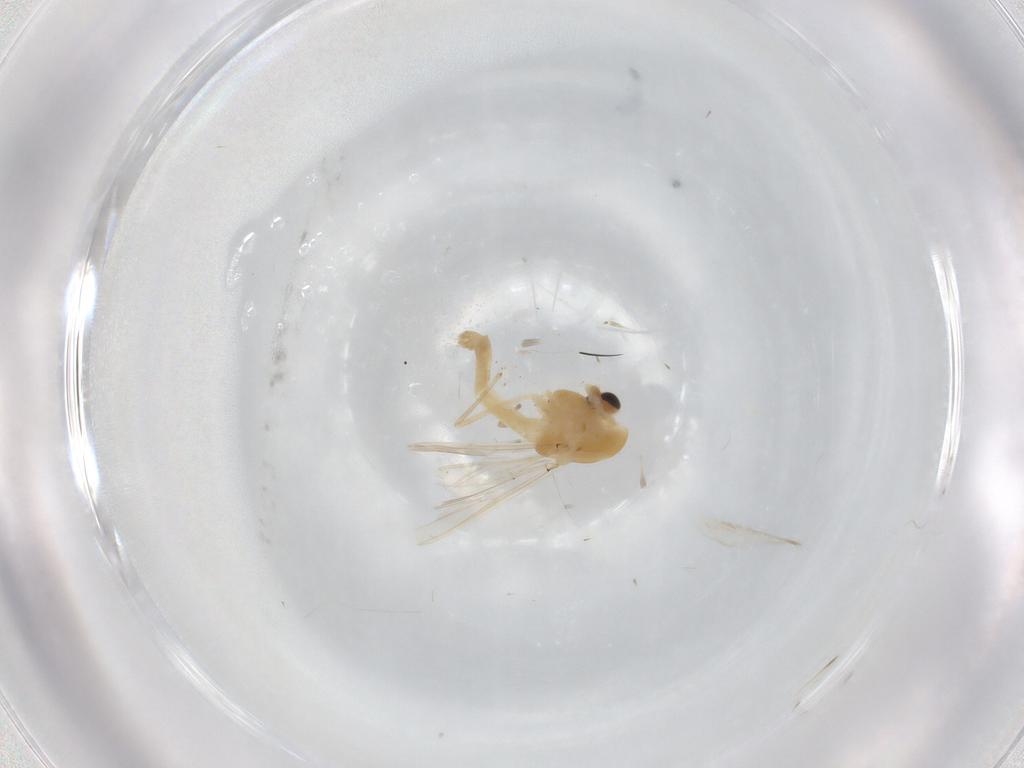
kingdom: Animalia
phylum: Arthropoda
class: Insecta
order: Diptera
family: Chironomidae
